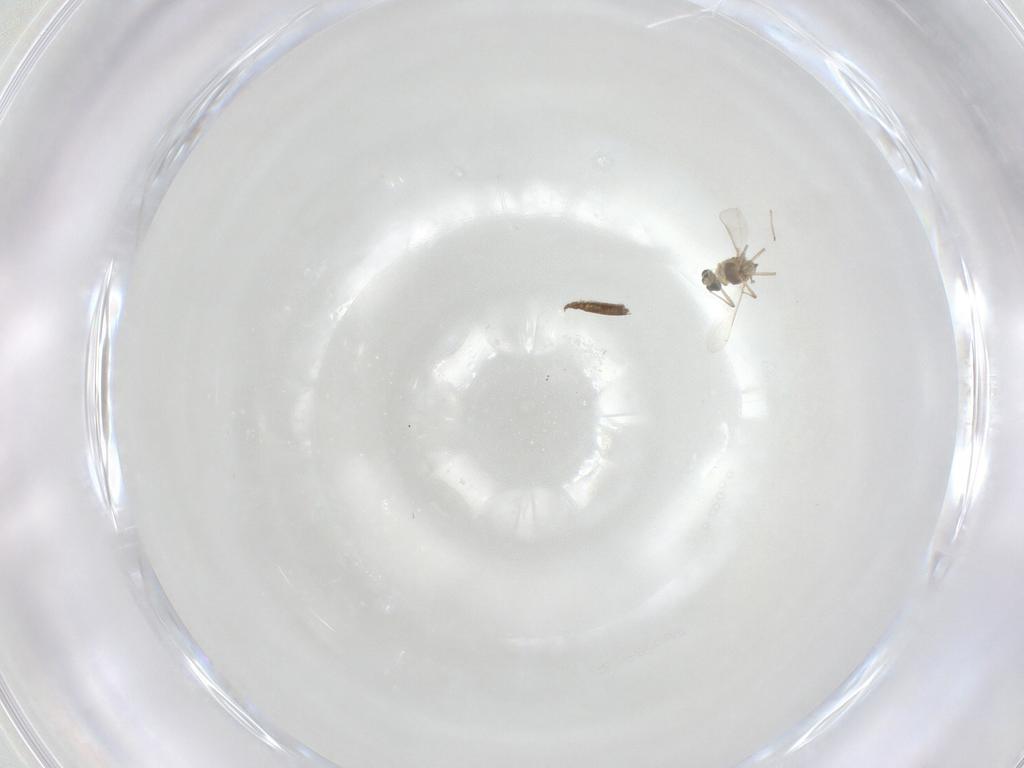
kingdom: Animalia
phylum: Arthropoda
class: Insecta
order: Diptera
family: Chironomidae
